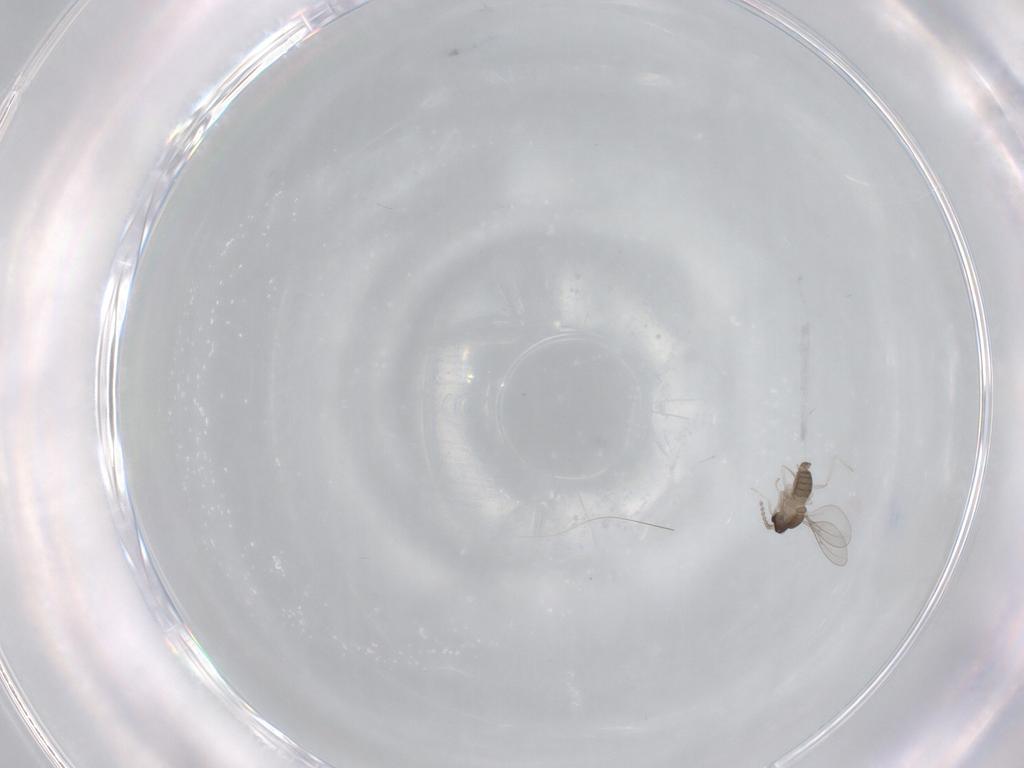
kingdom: Animalia
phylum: Arthropoda
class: Insecta
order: Diptera
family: Cecidomyiidae
